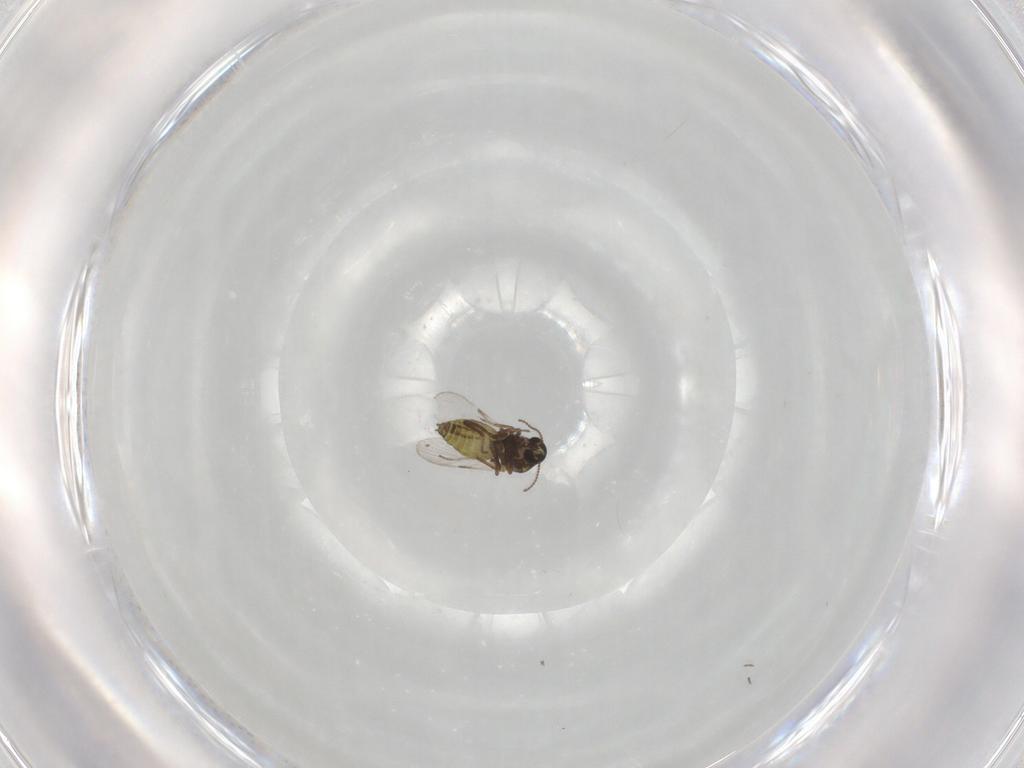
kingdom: Animalia
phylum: Arthropoda
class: Insecta
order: Diptera
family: Ceratopogonidae
